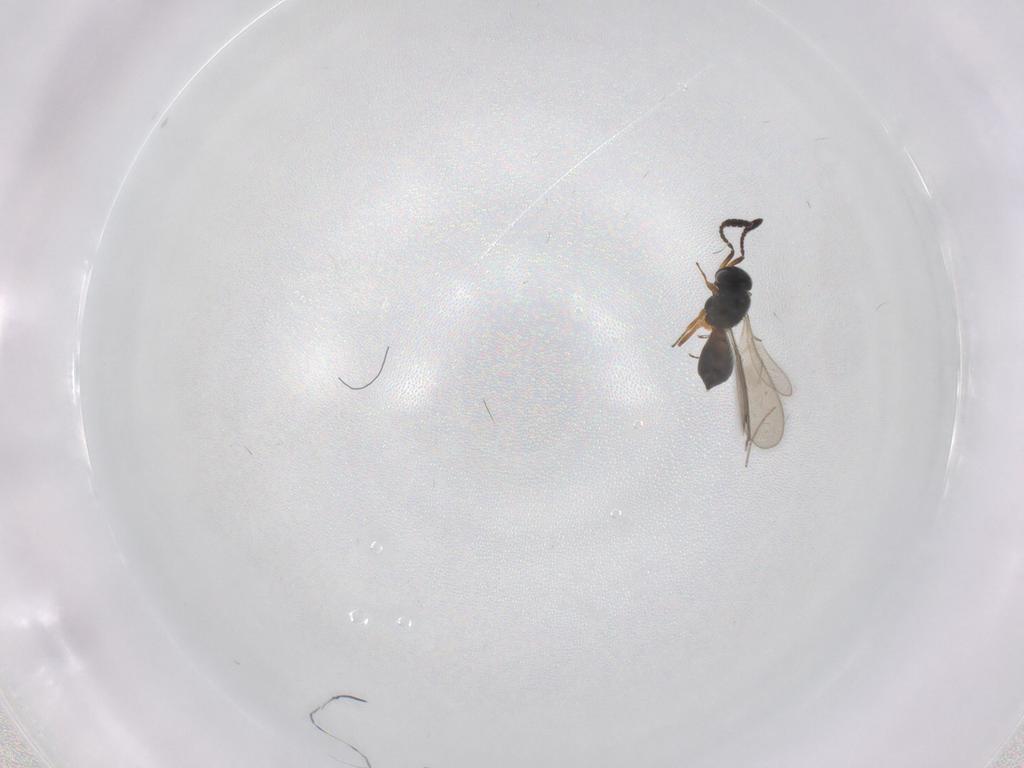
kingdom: Animalia
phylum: Arthropoda
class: Insecta
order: Hymenoptera
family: Scelionidae
